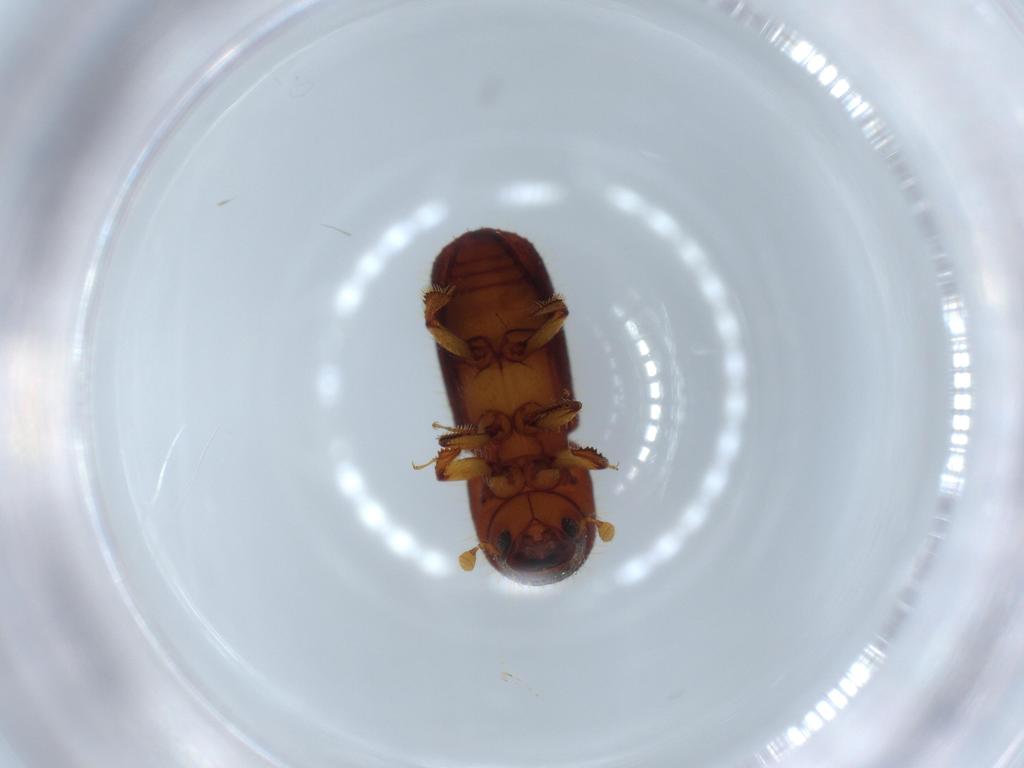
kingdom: Animalia
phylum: Arthropoda
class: Insecta
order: Coleoptera
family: Curculionidae
